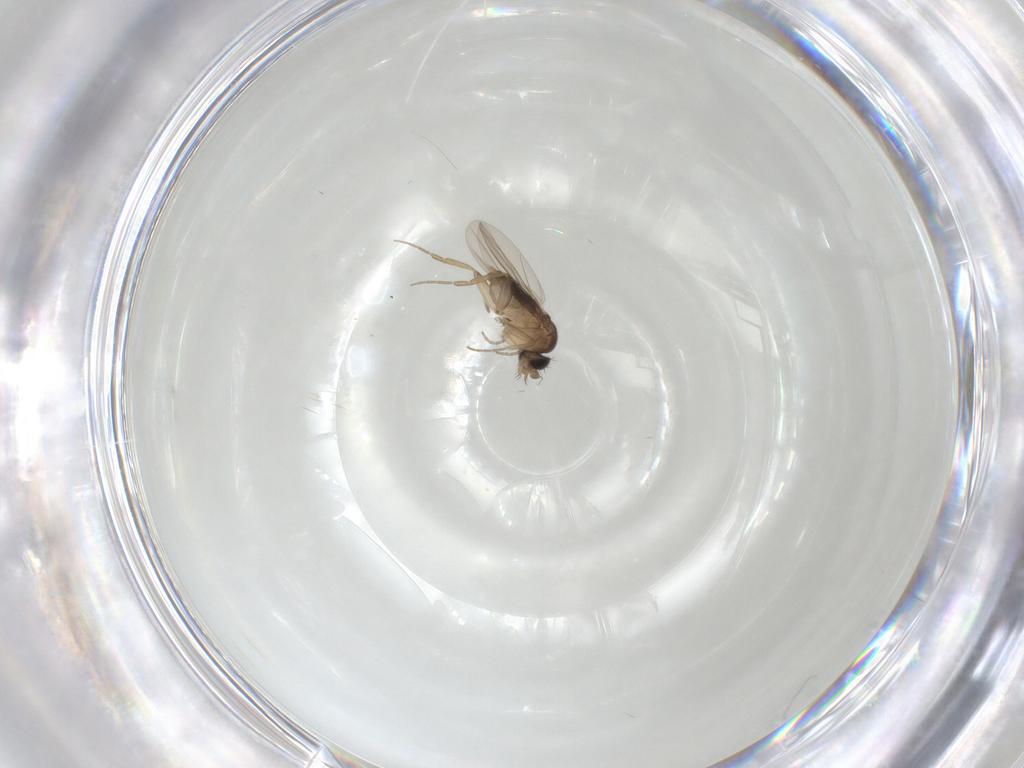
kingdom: Animalia
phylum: Arthropoda
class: Insecta
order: Diptera
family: Phoridae
